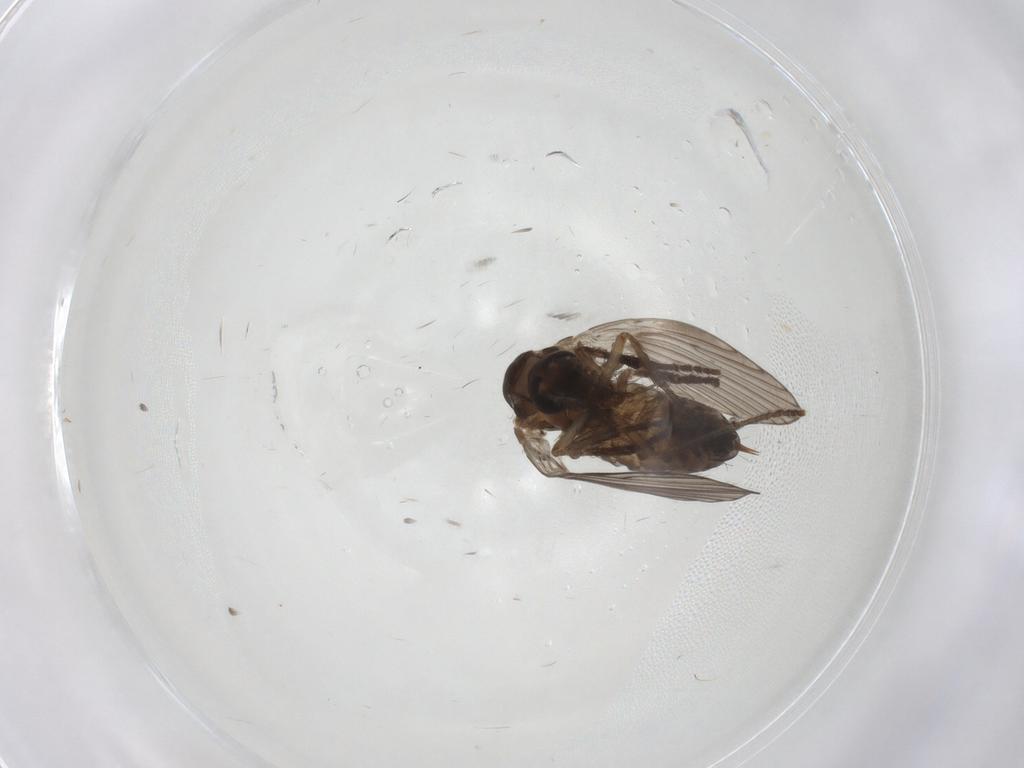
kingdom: Animalia
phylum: Arthropoda
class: Insecta
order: Diptera
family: Psychodidae
